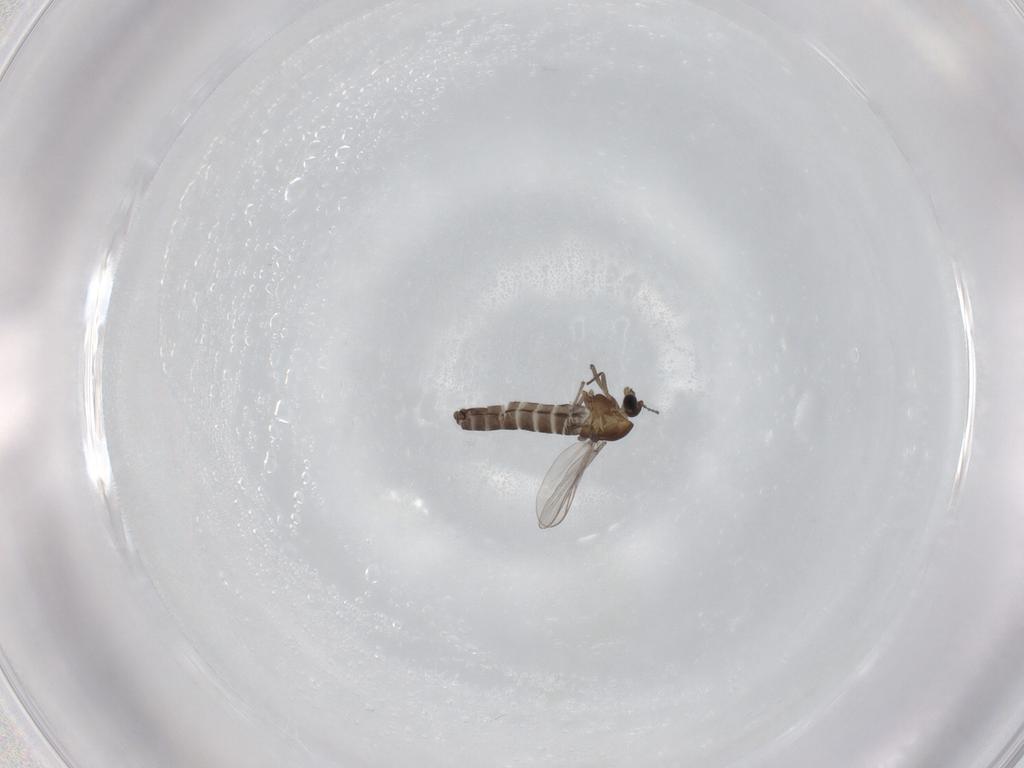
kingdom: Animalia
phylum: Arthropoda
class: Insecta
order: Diptera
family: Chironomidae
